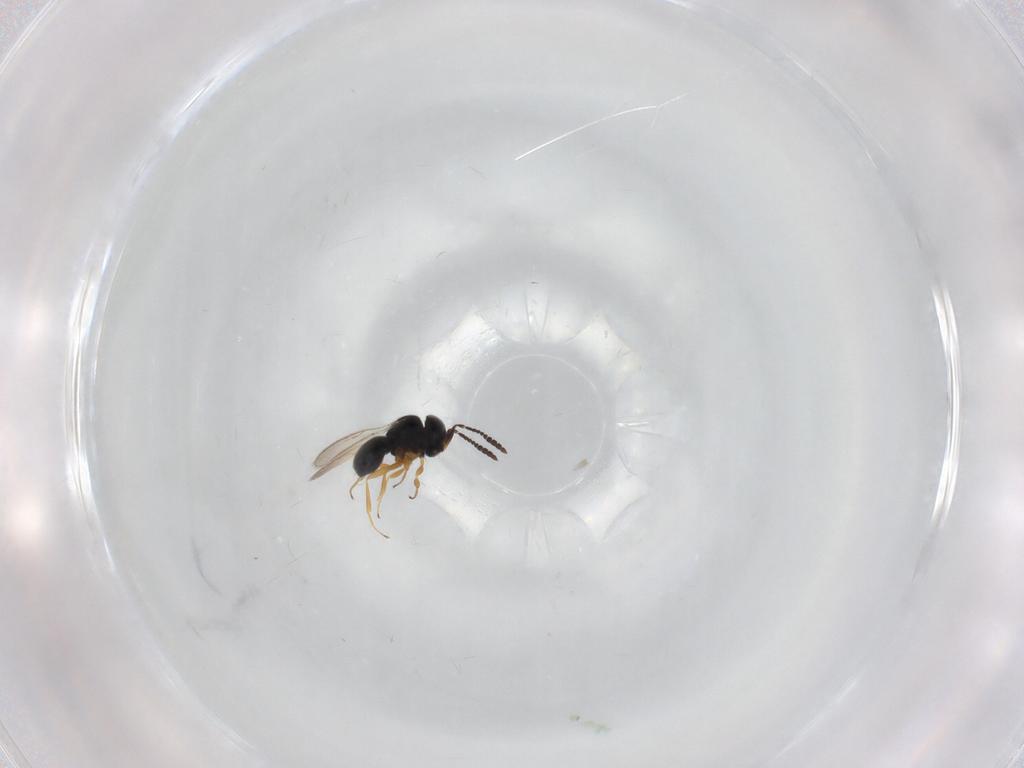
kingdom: Animalia
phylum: Arthropoda
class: Insecta
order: Hymenoptera
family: Scelionidae
